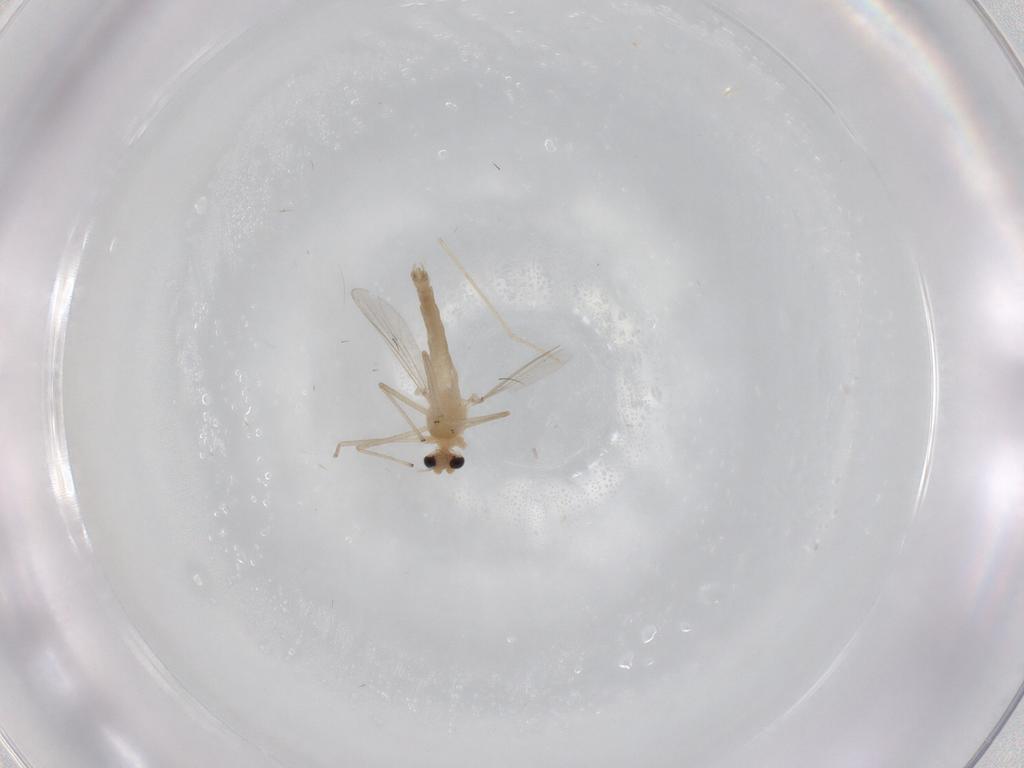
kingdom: Animalia
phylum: Arthropoda
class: Insecta
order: Diptera
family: Chironomidae
